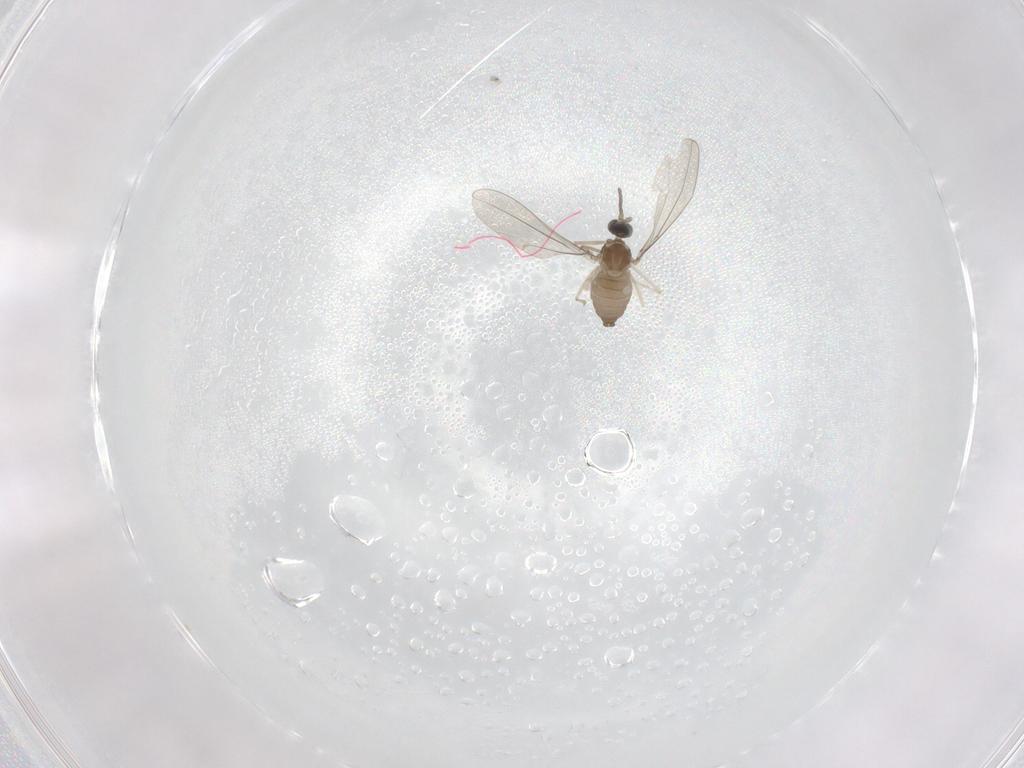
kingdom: Animalia
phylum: Arthropoda
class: Insecta
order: Diptera
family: Cecidomyiidae
